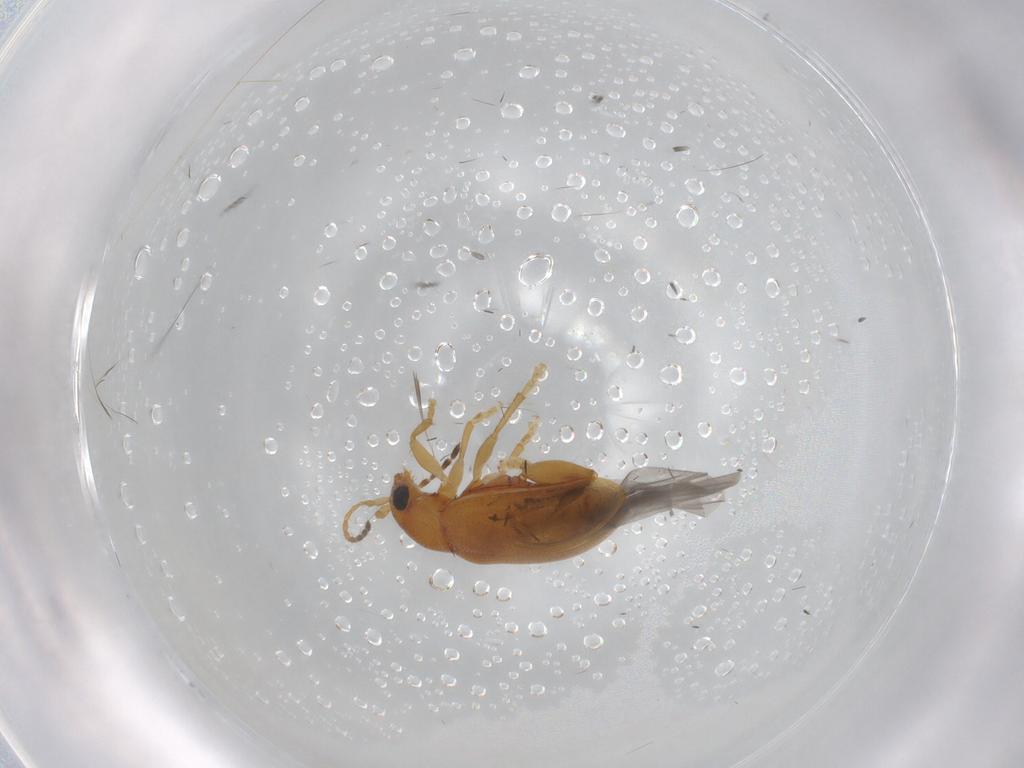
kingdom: Animalia
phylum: Arthropoda
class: Insecta
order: Coleoptera
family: Chrysomelidae
